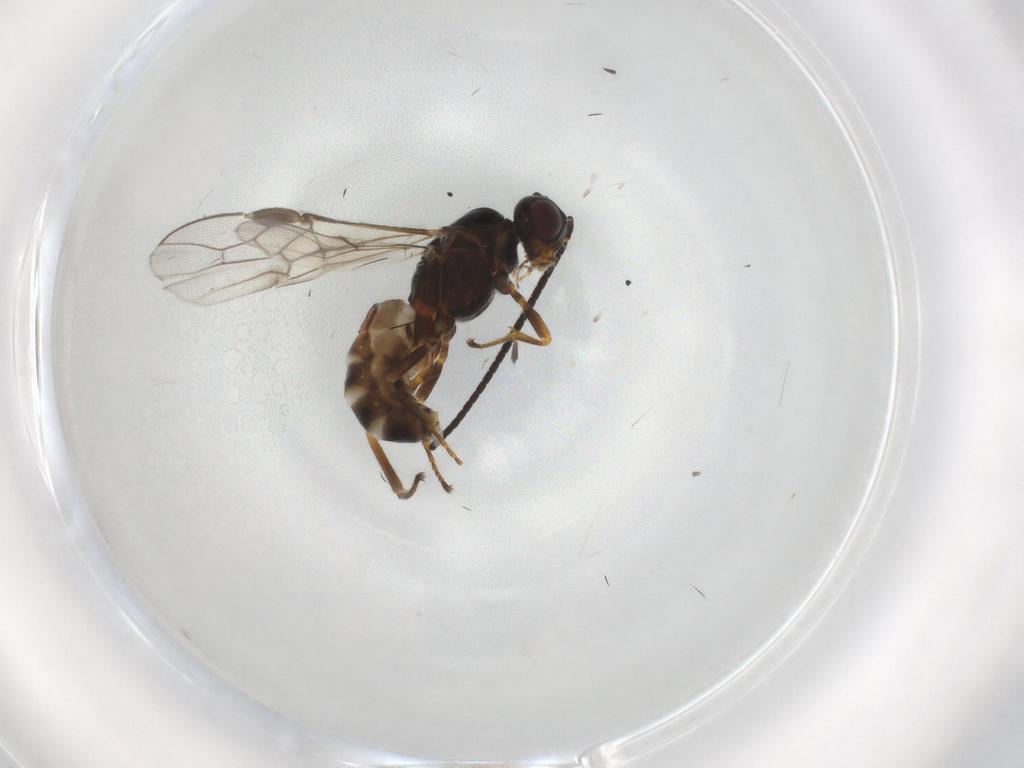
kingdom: Animalia
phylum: Arthropoda
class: Insecta
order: Hymenoptera
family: Braconidae
